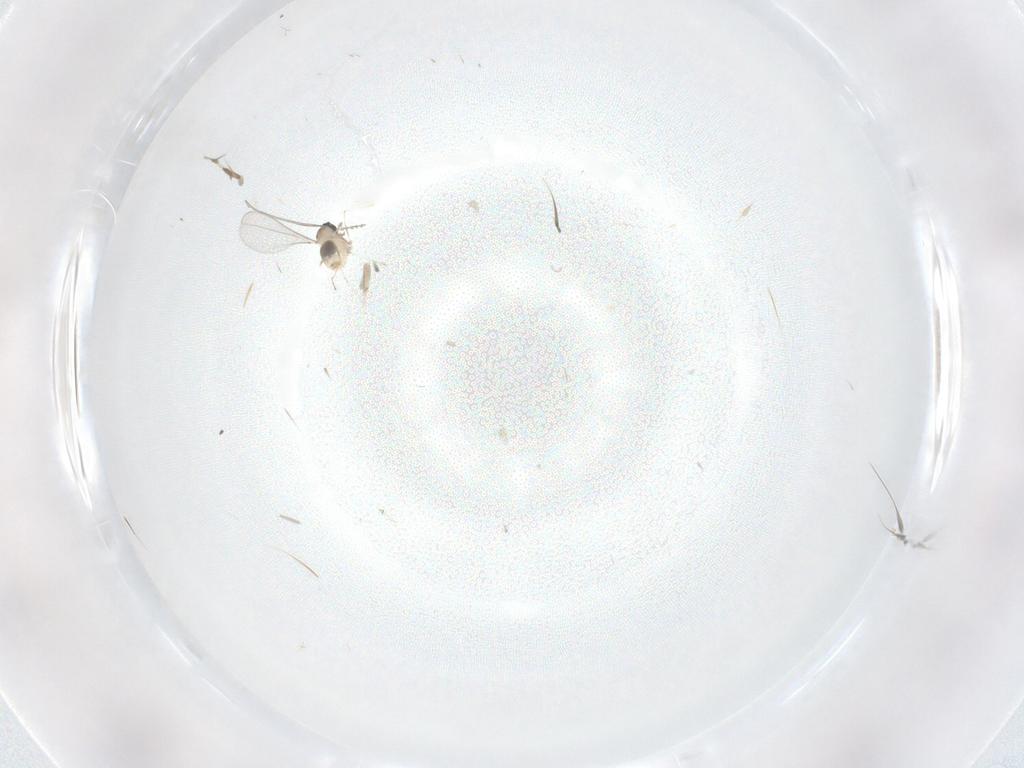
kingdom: Animalia
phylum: Arthropoda
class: Insecta
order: Diptera
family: Cecidomyiidae
